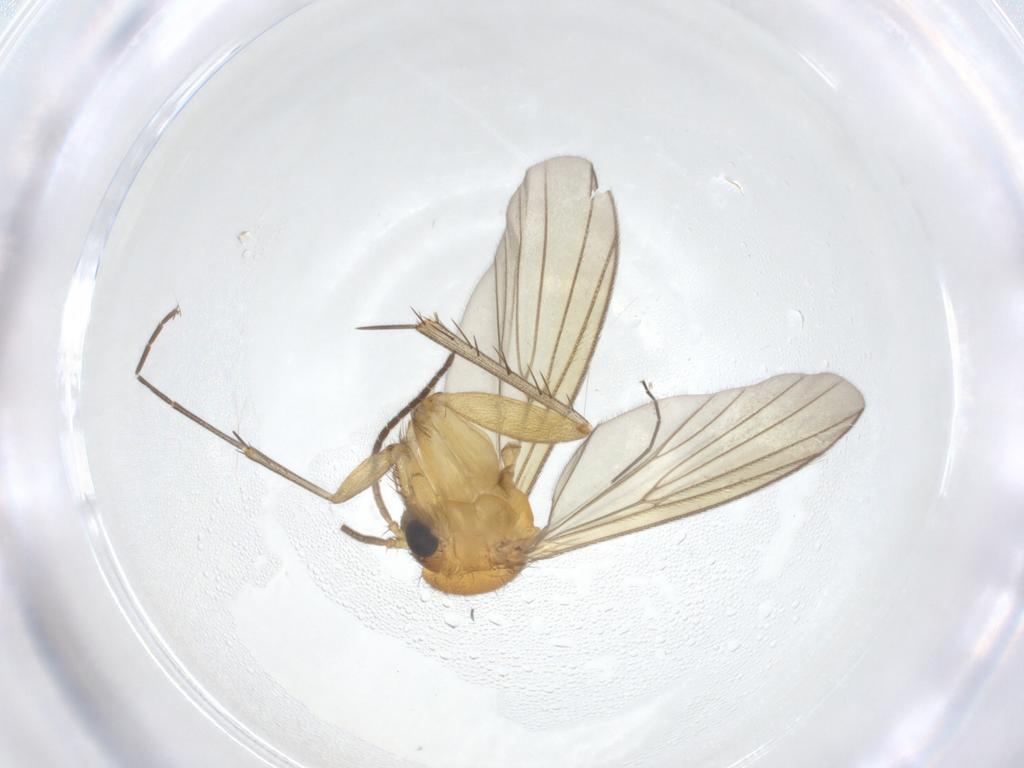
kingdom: Animalia
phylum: Arthropoda
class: Insecta
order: Diptera
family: Mycetophilidae
